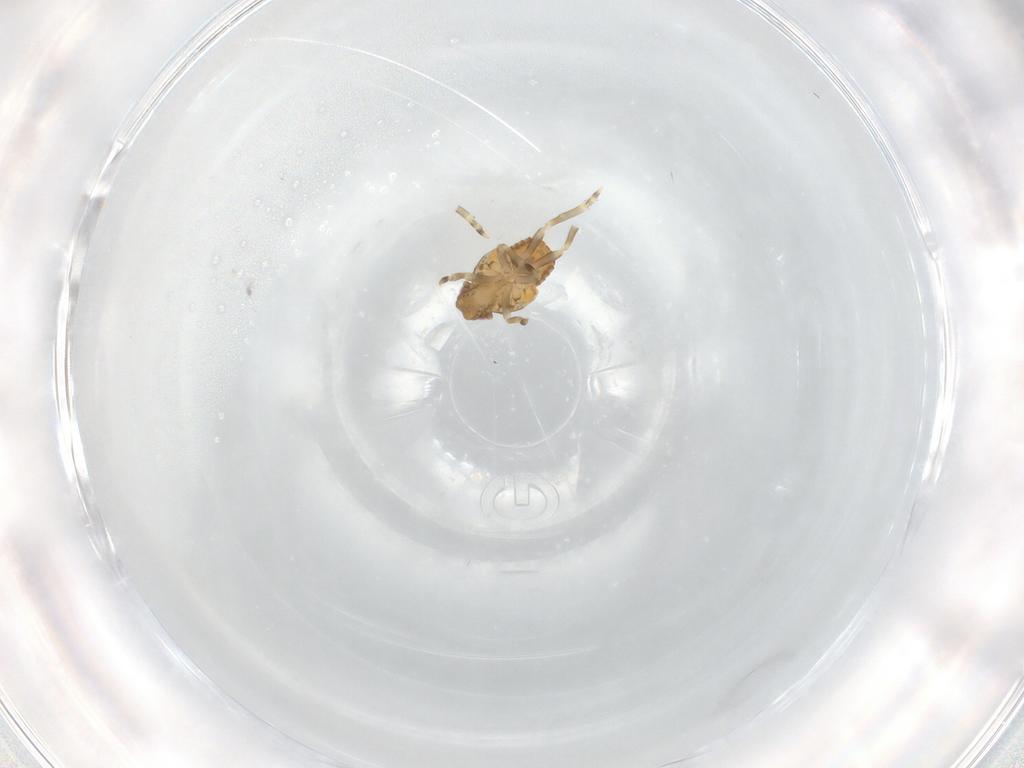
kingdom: Animalia
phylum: Arthropoda
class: Insecta
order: Hemiptera
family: Flatidae
